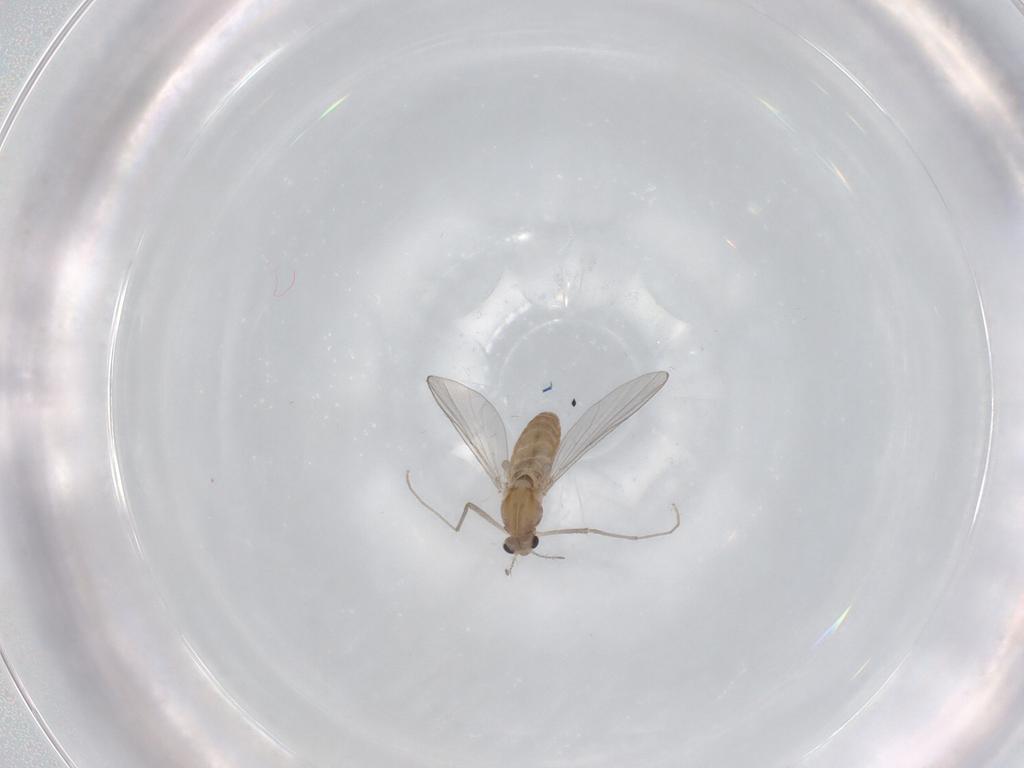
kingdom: Animalia
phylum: Arthropoda
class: Insecta
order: Diptera
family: Chironomidae
